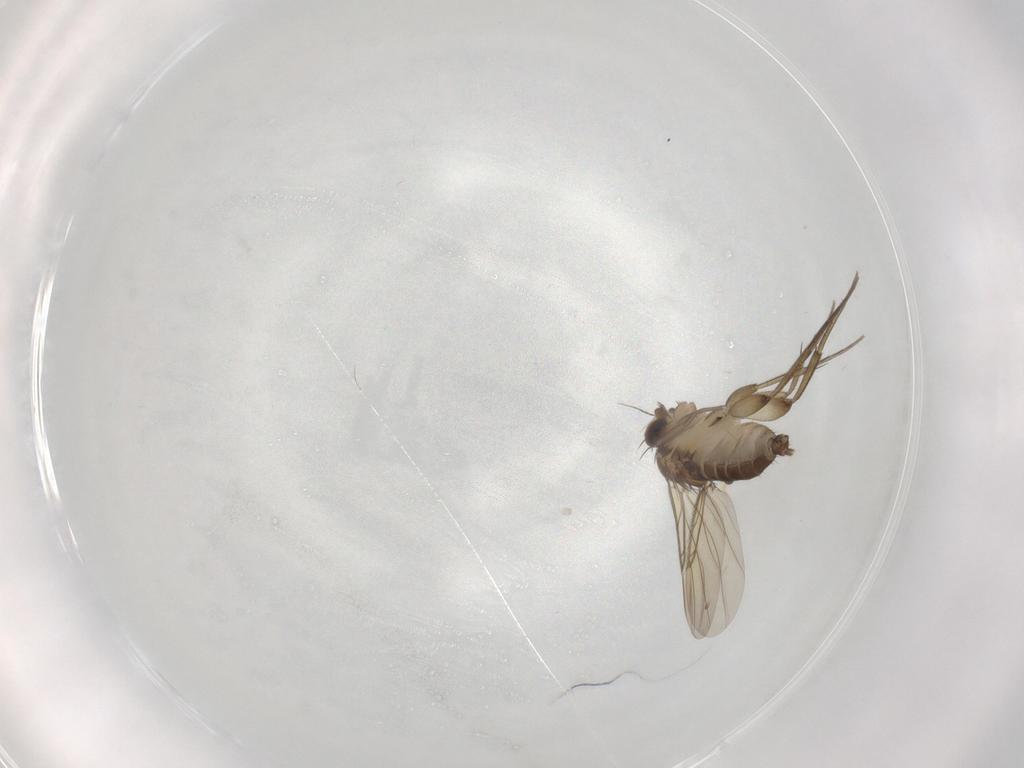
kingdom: Animalia
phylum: Arthropoda
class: Insecta
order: Diptera
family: Phoridae
